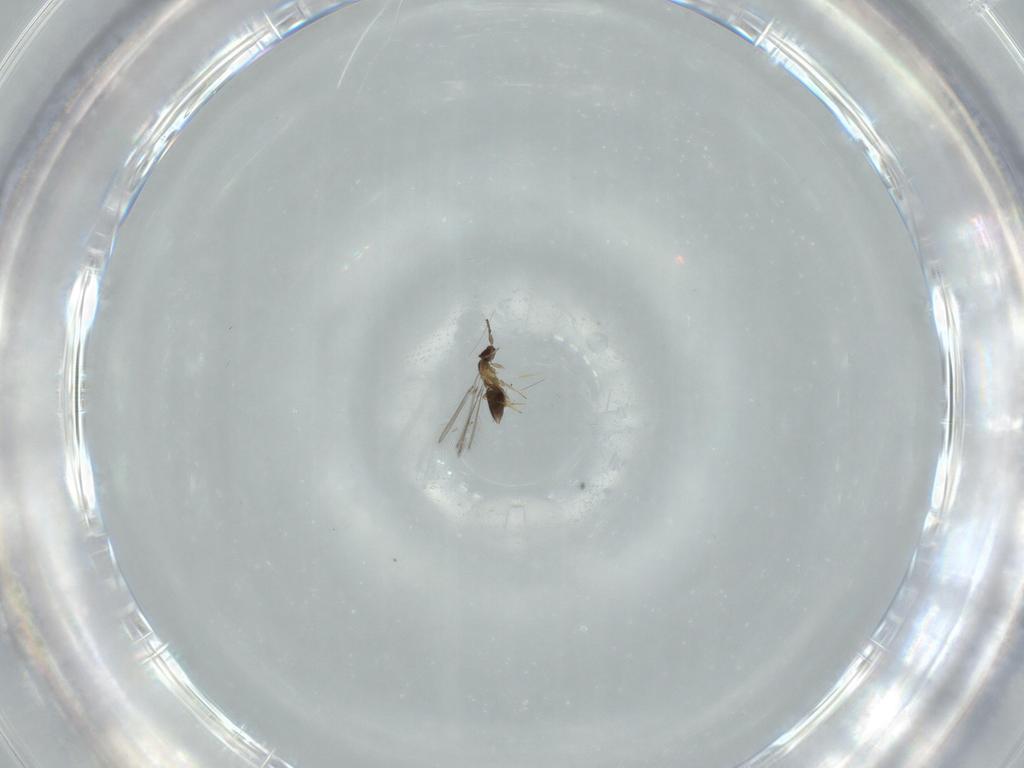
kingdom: Animalia
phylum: Arthropoda
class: Insecta
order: Hymenoptera
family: Mymaridae
